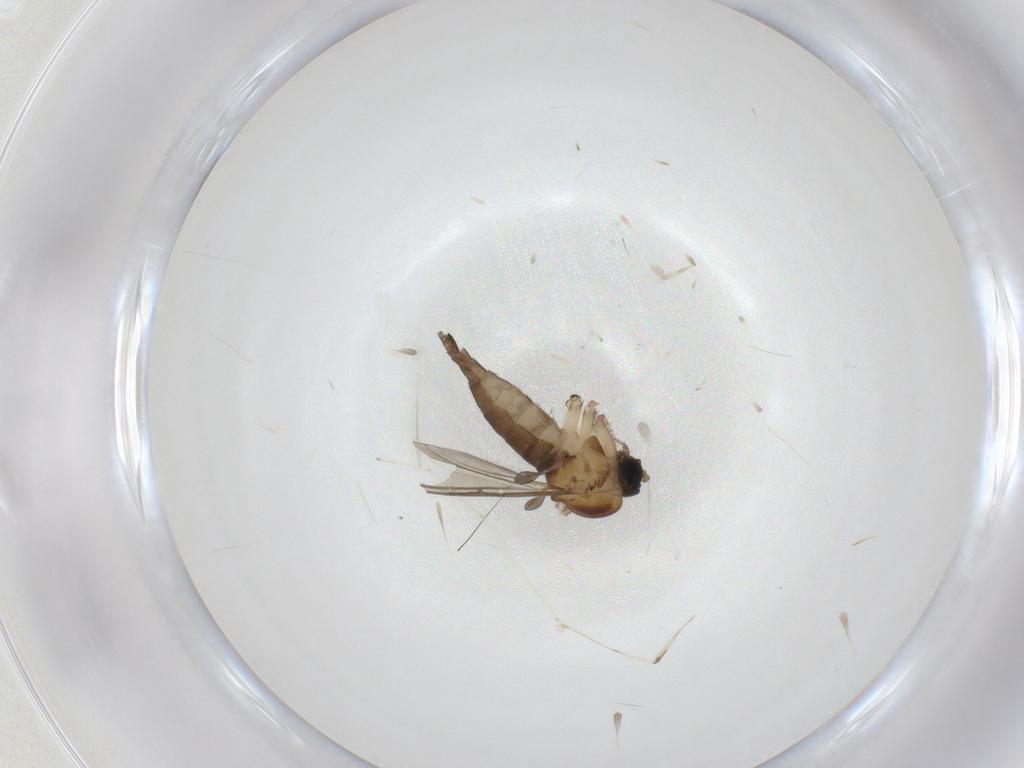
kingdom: Animalia
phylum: Arthropoda
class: Insecta
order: Diptera
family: Sciaridae
